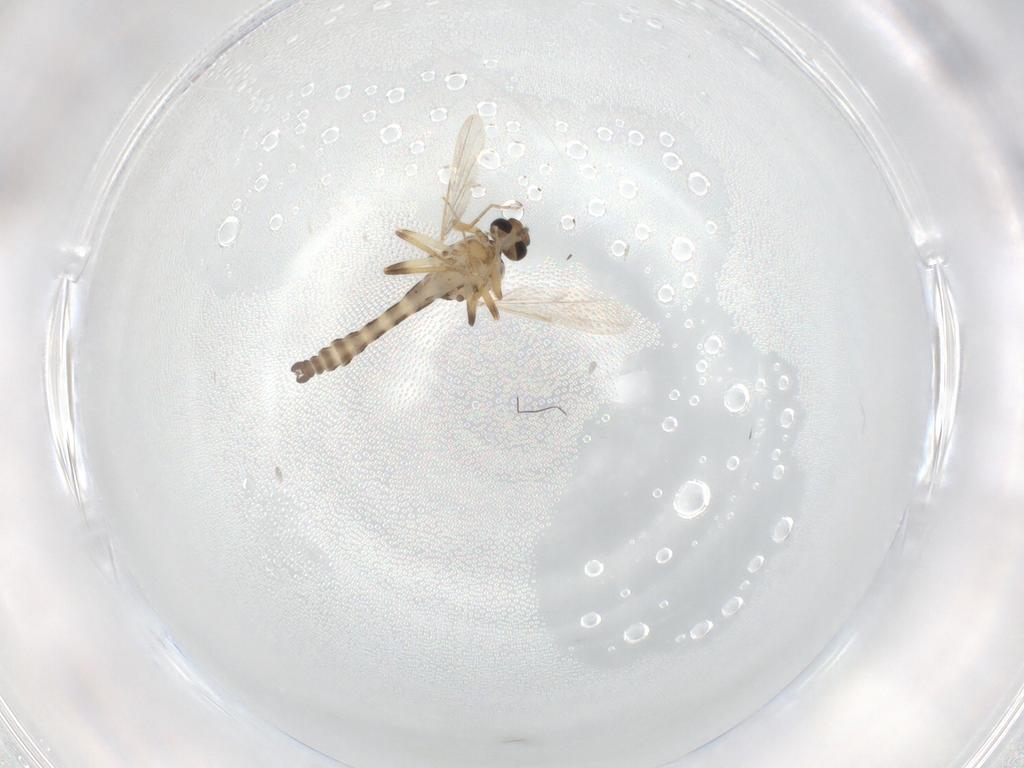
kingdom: Animalia
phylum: Arthropoda
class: Insecta
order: Diptera
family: Ceratopogonidae
